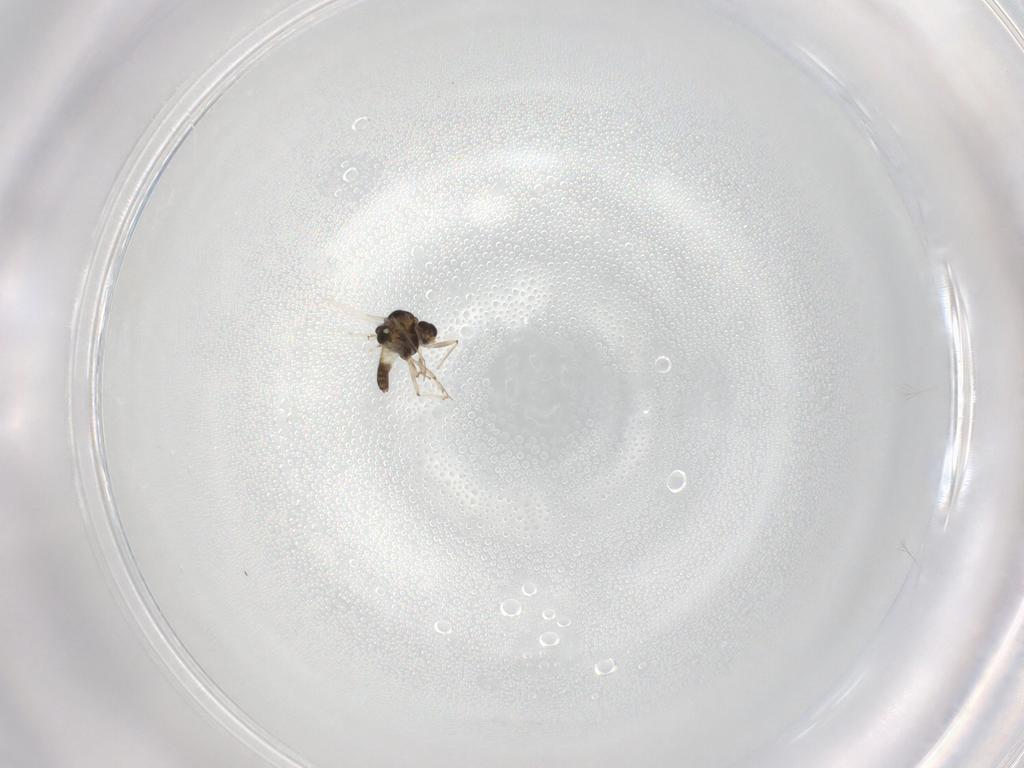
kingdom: Animalia
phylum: Arthropoda
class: Insecta
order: Diptera
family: Chironomidae
